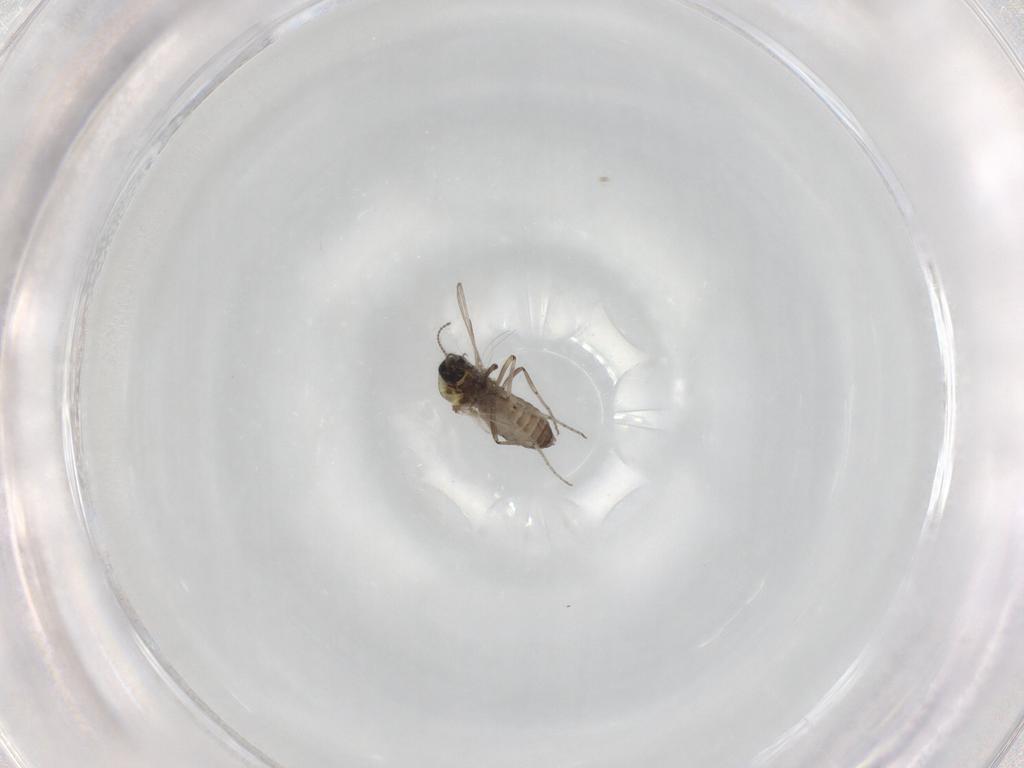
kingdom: Animalia
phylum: Arthropoda
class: Insecta
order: Diptera
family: Ceratopogonidae
